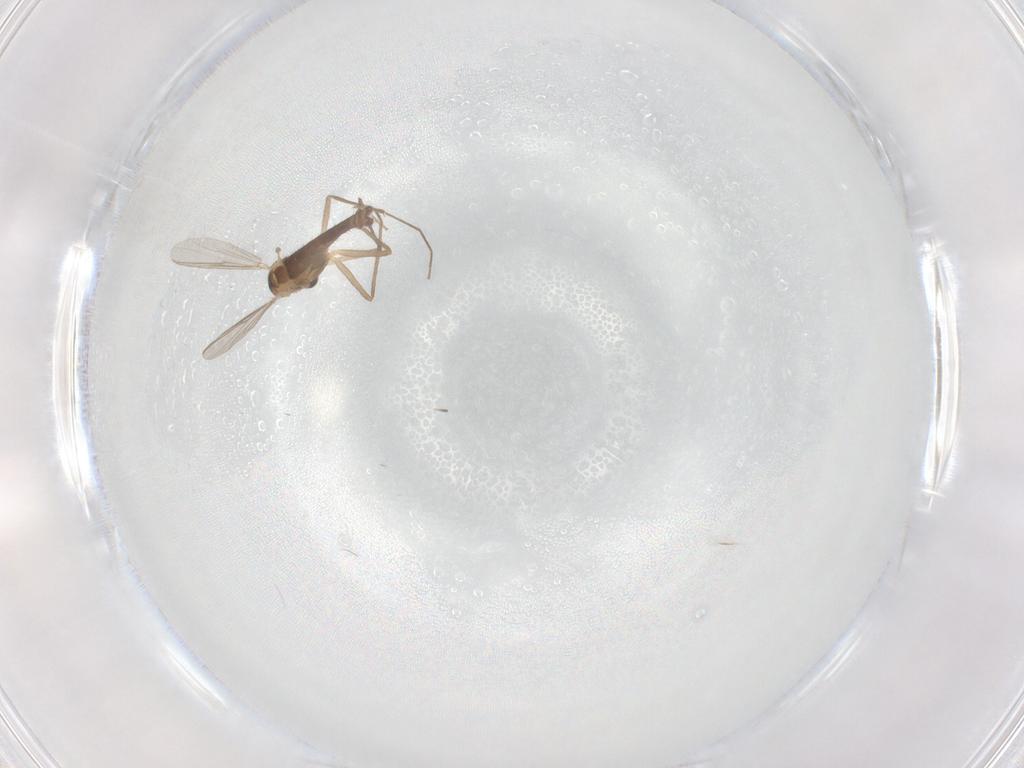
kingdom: Animalia
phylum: Arthropoda
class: Insecta
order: Diptera
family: Chironomidae
